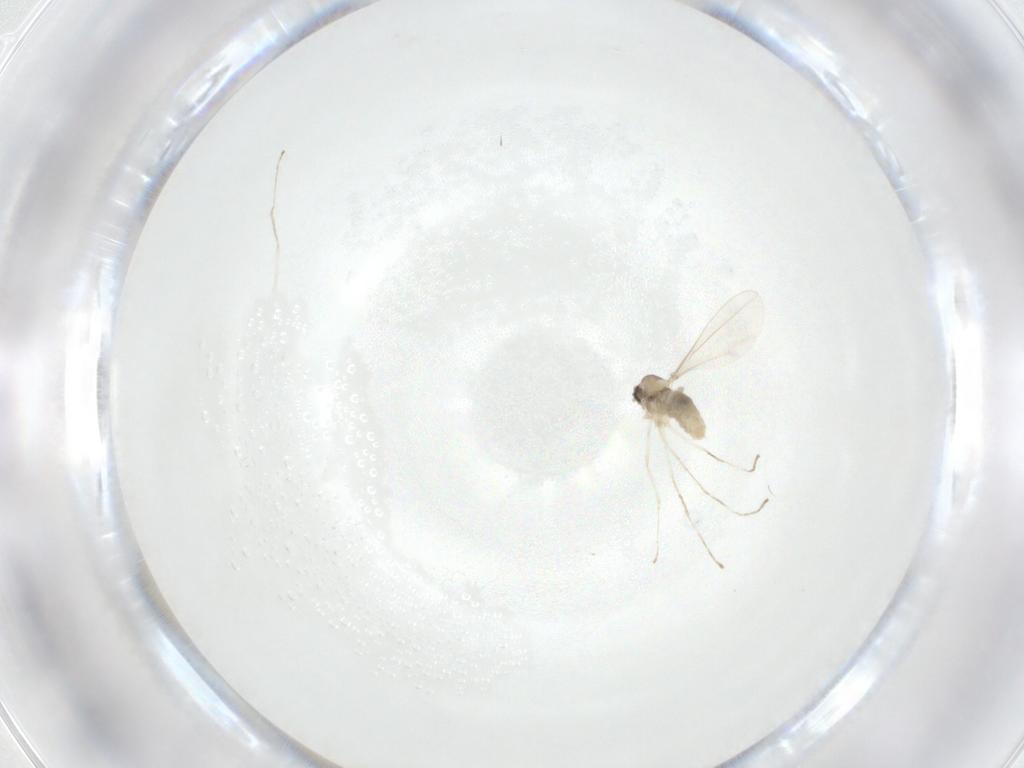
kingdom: Animalia
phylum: Arthropoda
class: Insecta
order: Diptera
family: Cecidomyiidae
